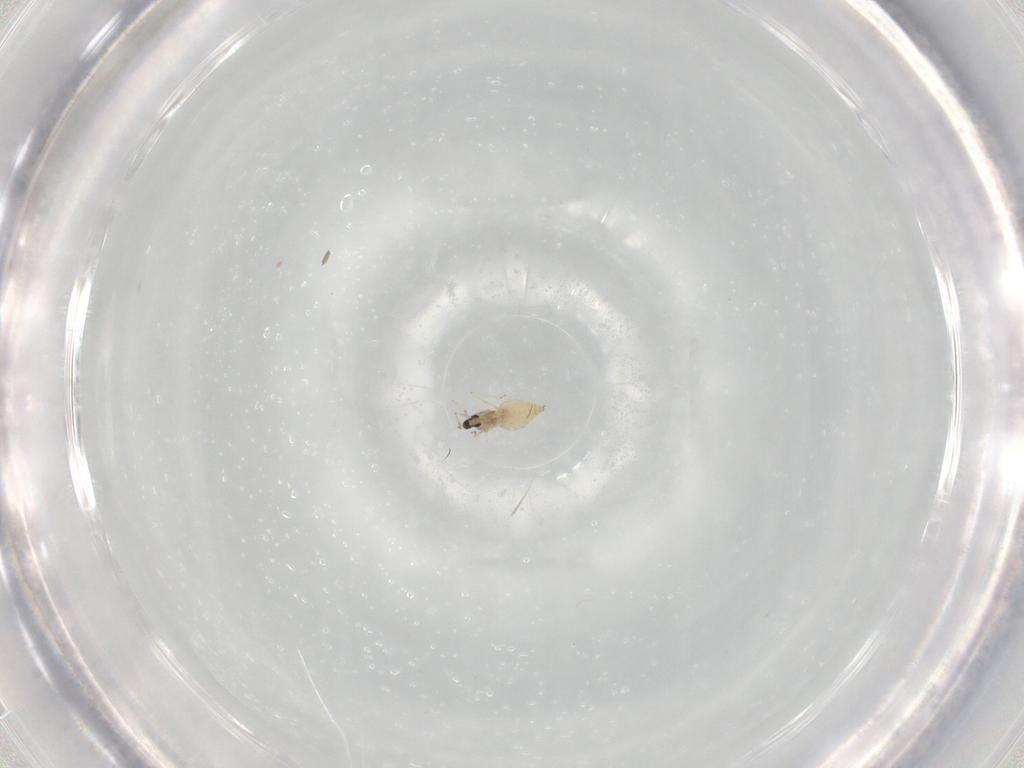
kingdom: Animalia
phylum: Arthropoda
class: Insecta
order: Diptera
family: Cecidomyiidae
